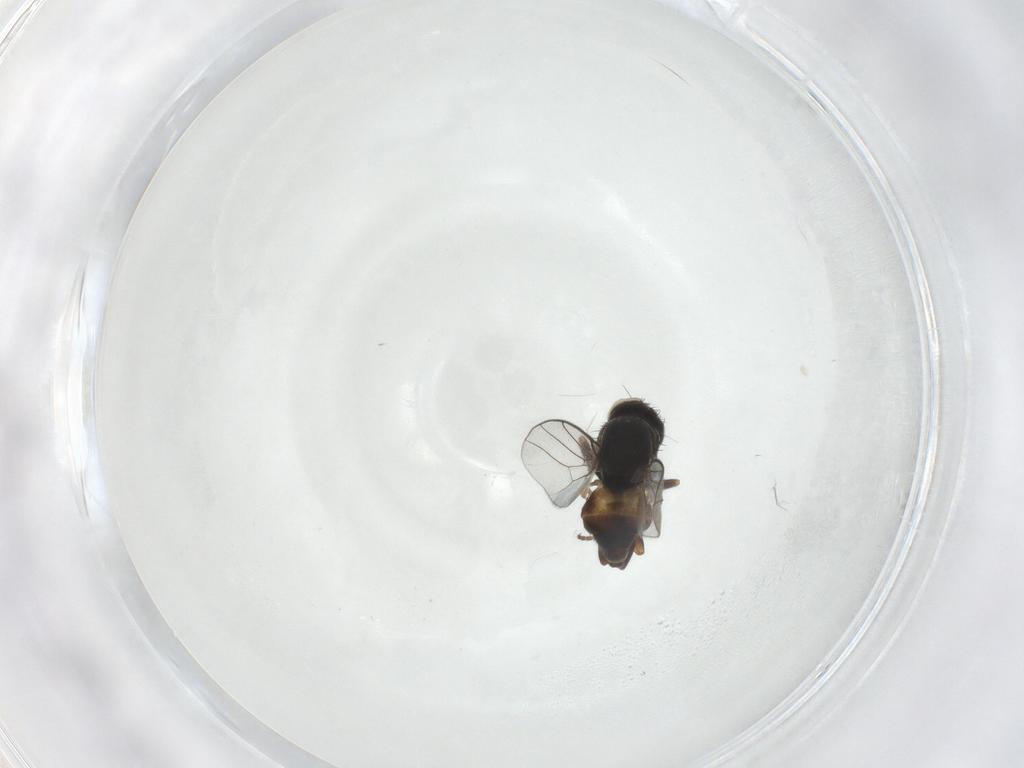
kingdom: Animalia
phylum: Arthropoda
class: Insecta
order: Diptera
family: Chloropidae
